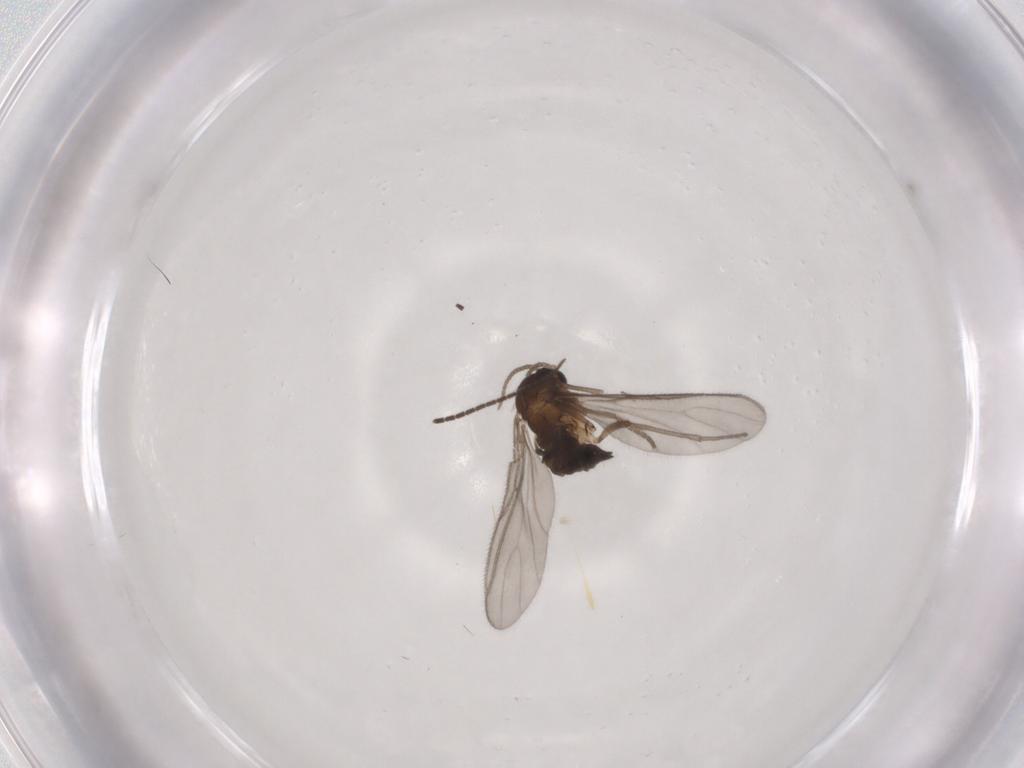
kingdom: Animalia
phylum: Arthropoda
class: Insecta
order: Diptera
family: Sciaridae
